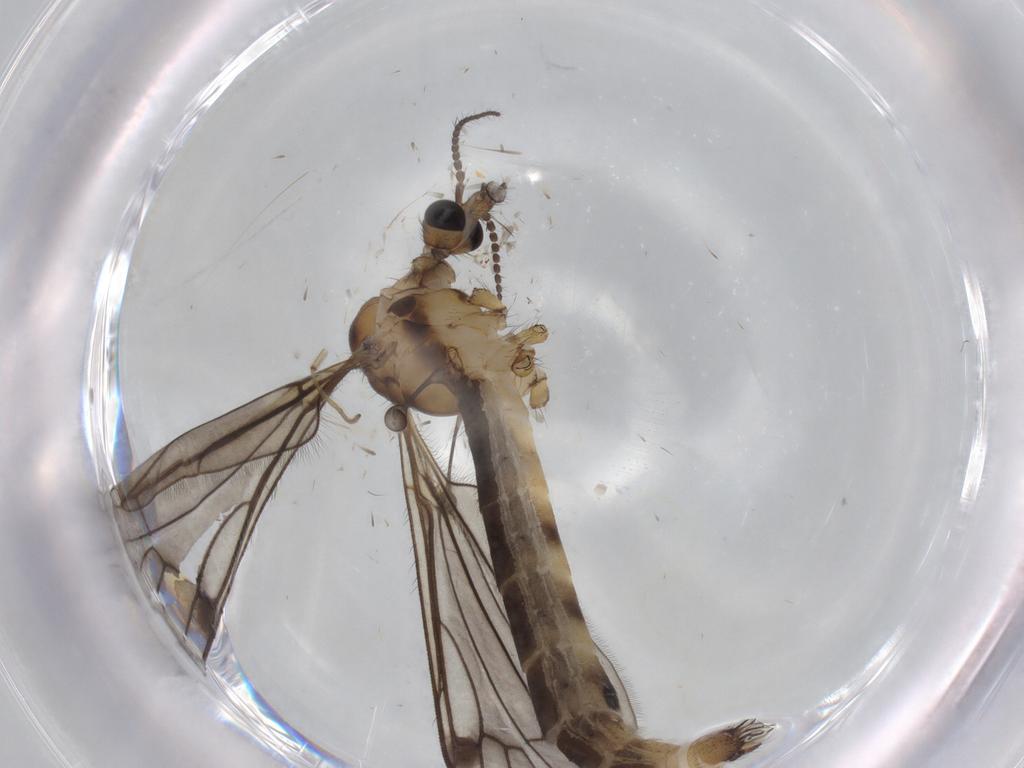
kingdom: Animalia
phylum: Arthropoda
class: Insecta
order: Diptera
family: Limoniidae
